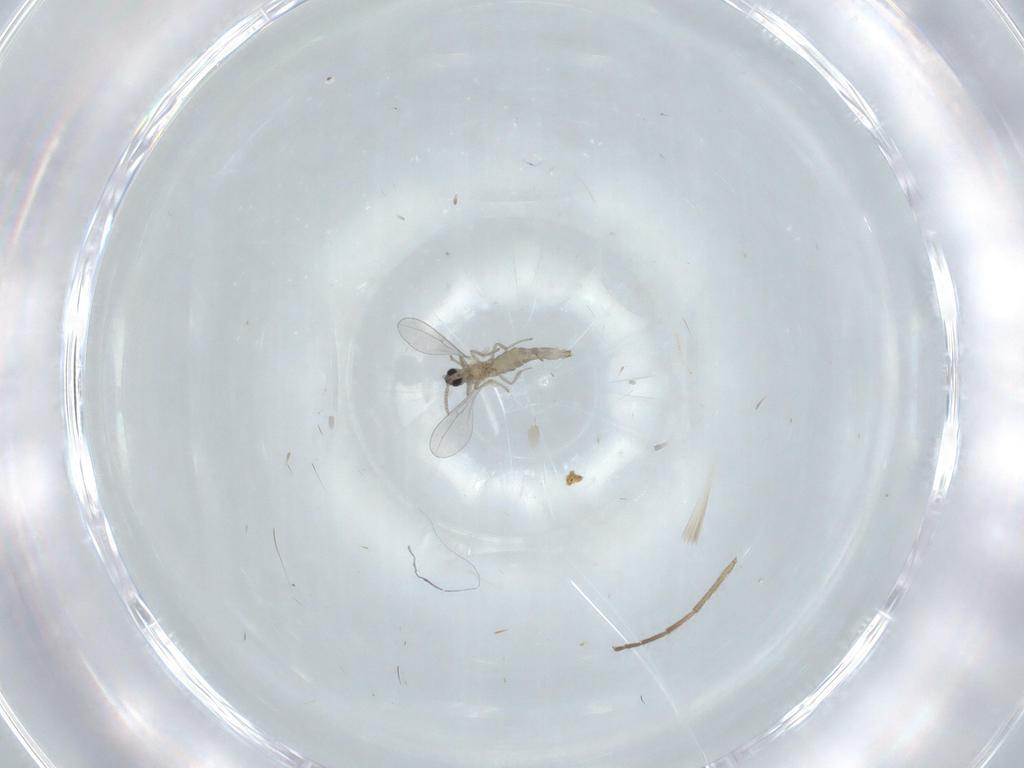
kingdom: Animalia
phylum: Arthropoda
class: Insecta
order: Diptera
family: Cecidomyiidae
